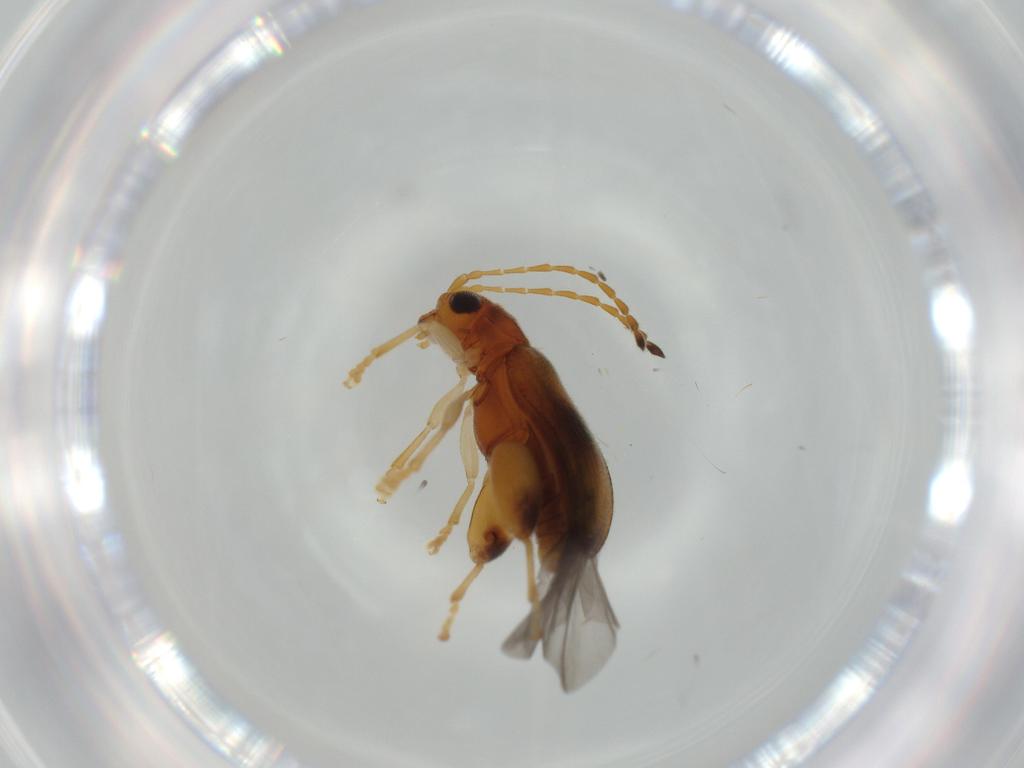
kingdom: Animalia
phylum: Arthropoda
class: Insecta
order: Coleoptera
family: Chrysomelidae
